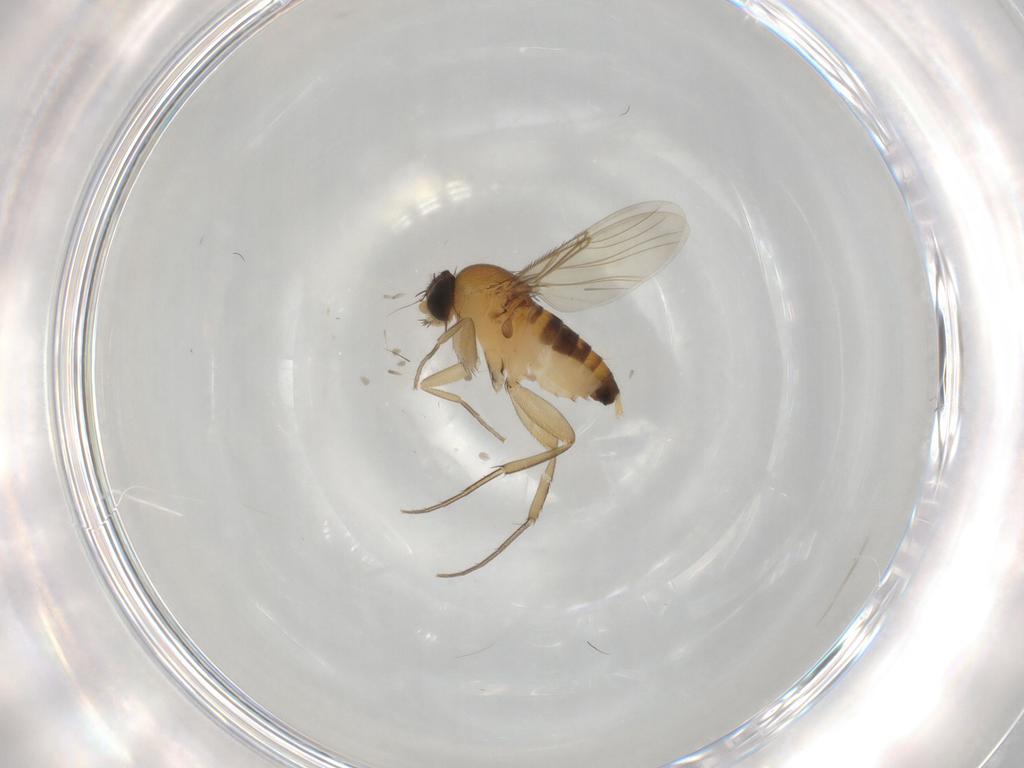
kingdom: Animalia
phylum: Arthropoda
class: Insecta
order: Diptera
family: Phoridae
